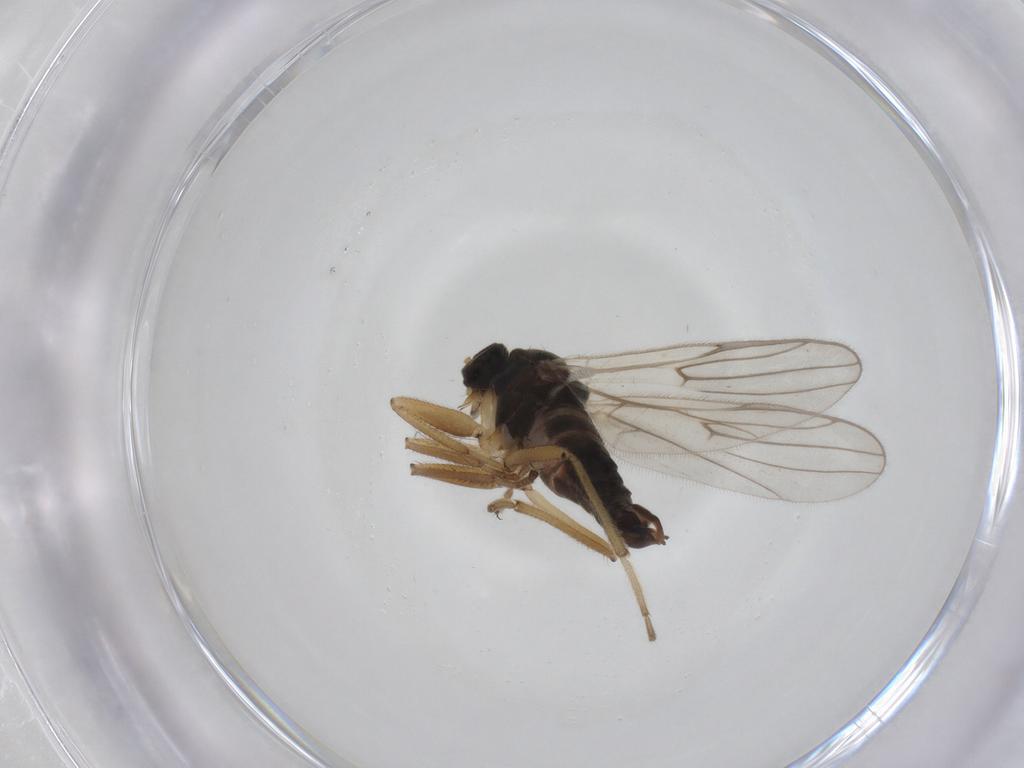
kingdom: Animalia
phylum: Arthropoda
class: Insecta
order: Diptera
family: Hybotidae
